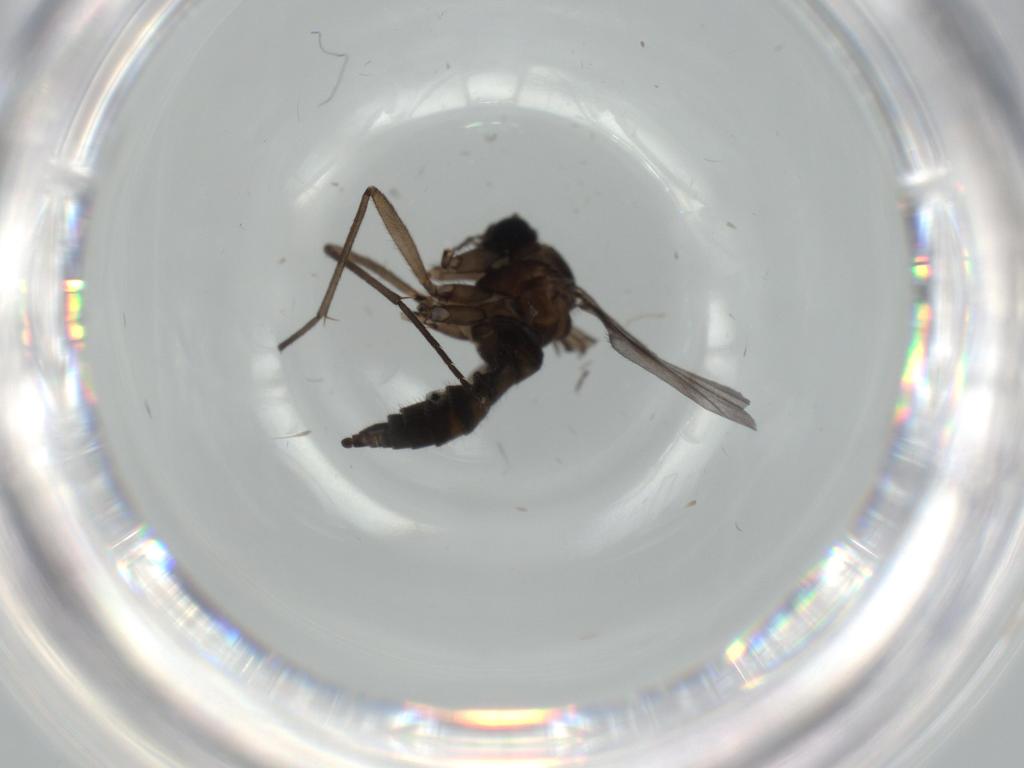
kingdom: Animalia
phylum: Arthropoda
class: Insecta
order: Diptera
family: Sciaridae
